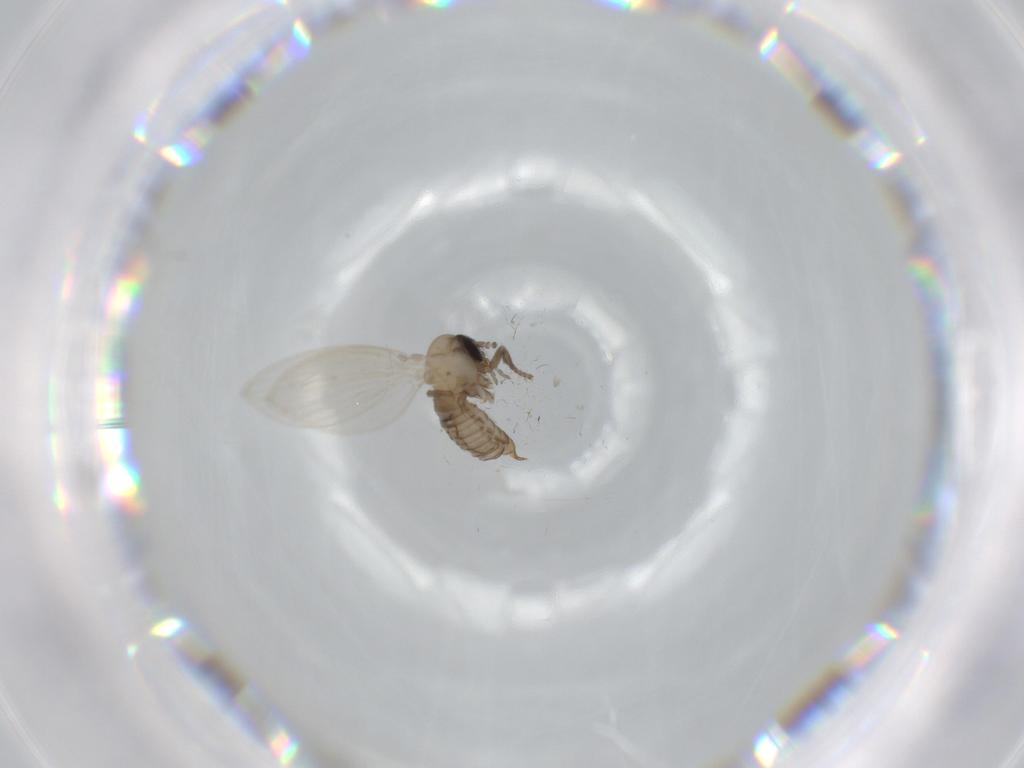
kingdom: Animalia
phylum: Arthropoda
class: Insecta
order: Diptera
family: Psychodidae
